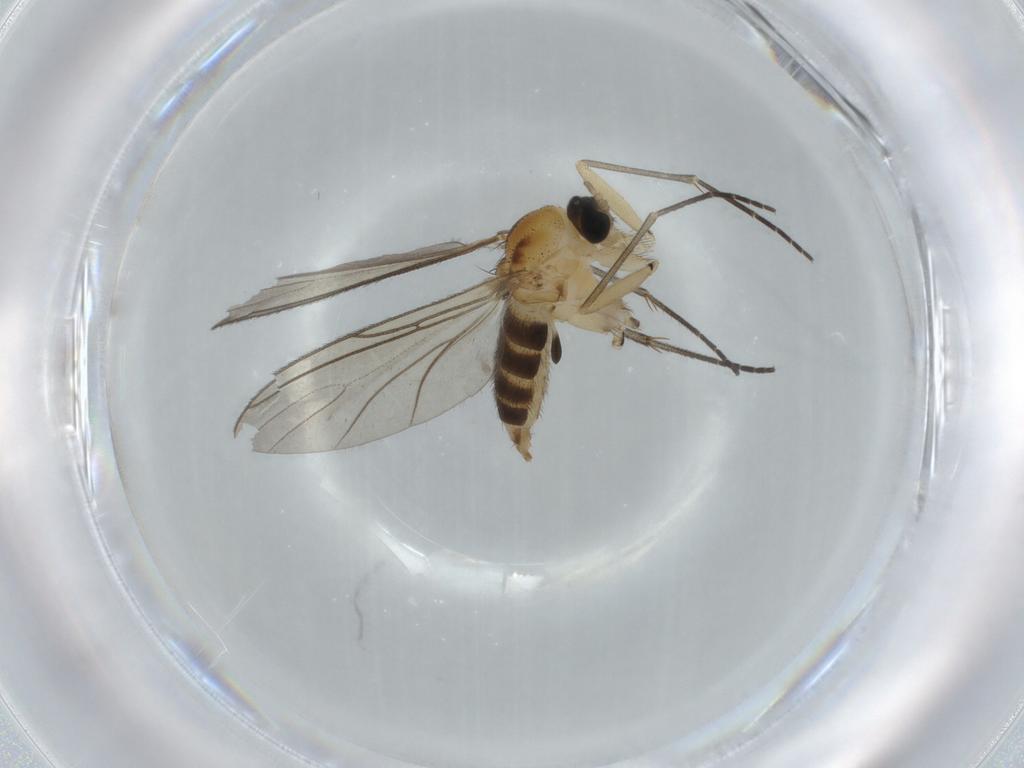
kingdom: Animalia
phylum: Arthropoda
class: Insecta
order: Diptera
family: Sciaridae
